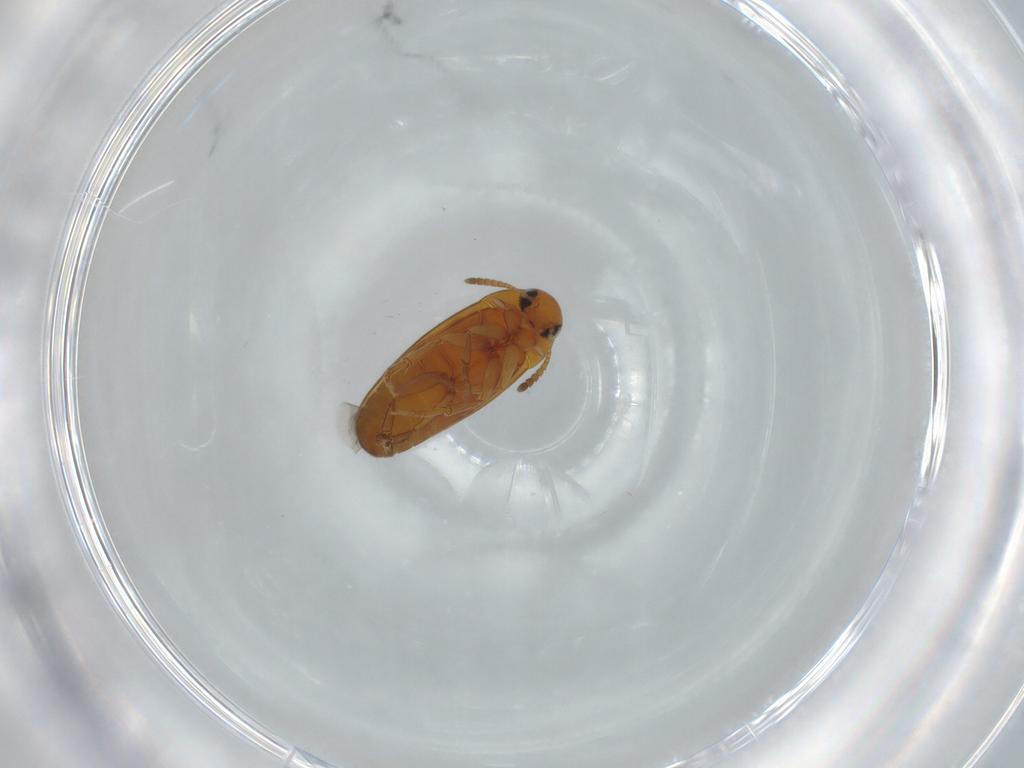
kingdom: Animalia
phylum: Arthropoda
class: Insecta
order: Coleoptera
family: Scraptiidae
